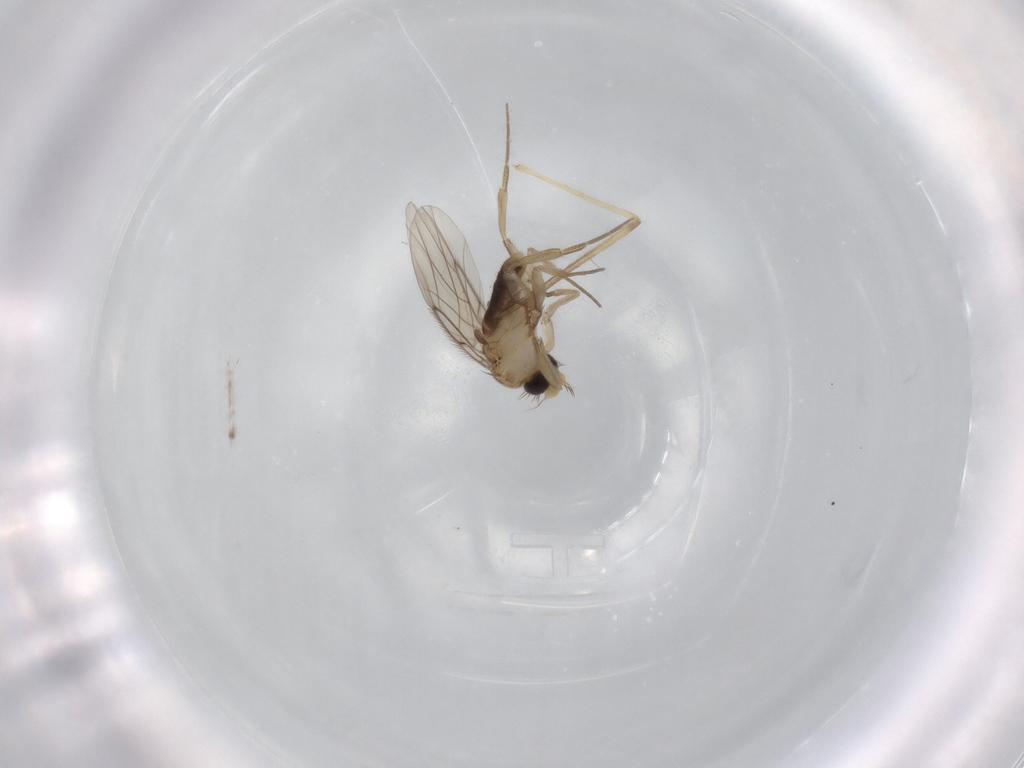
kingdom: Animalia
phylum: Arthropoda
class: Insecta
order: Diptera
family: Phoridae
